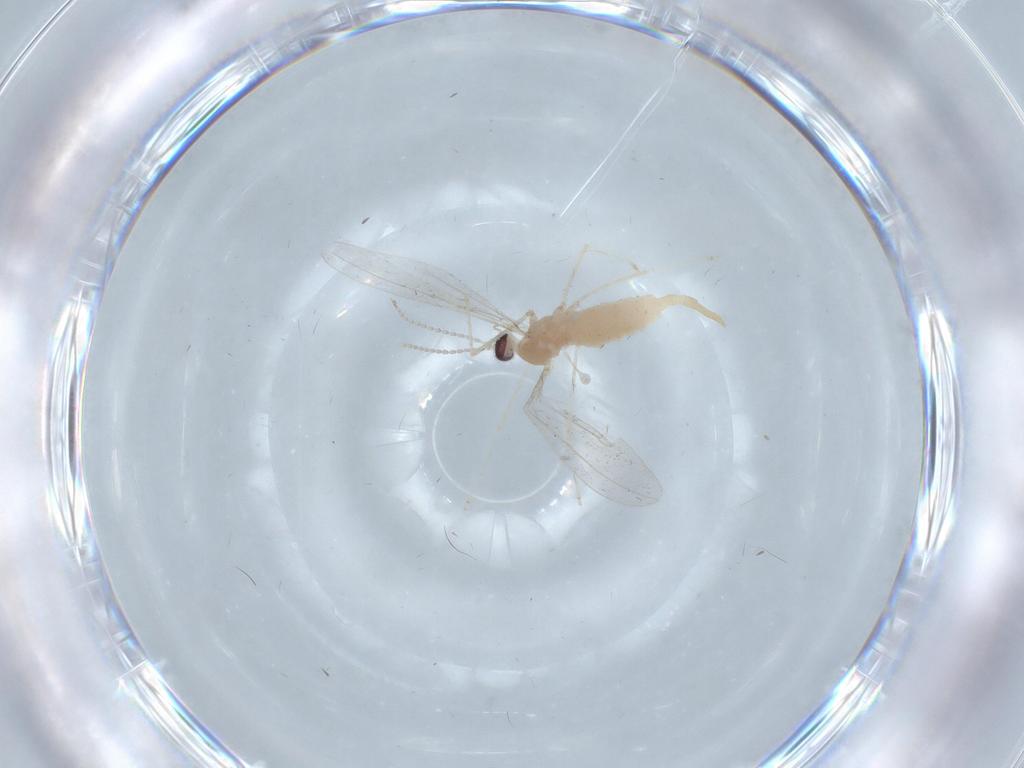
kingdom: Animalia
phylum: Arthropoda
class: Insecta
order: Diptera
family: Cecidomyiidae
